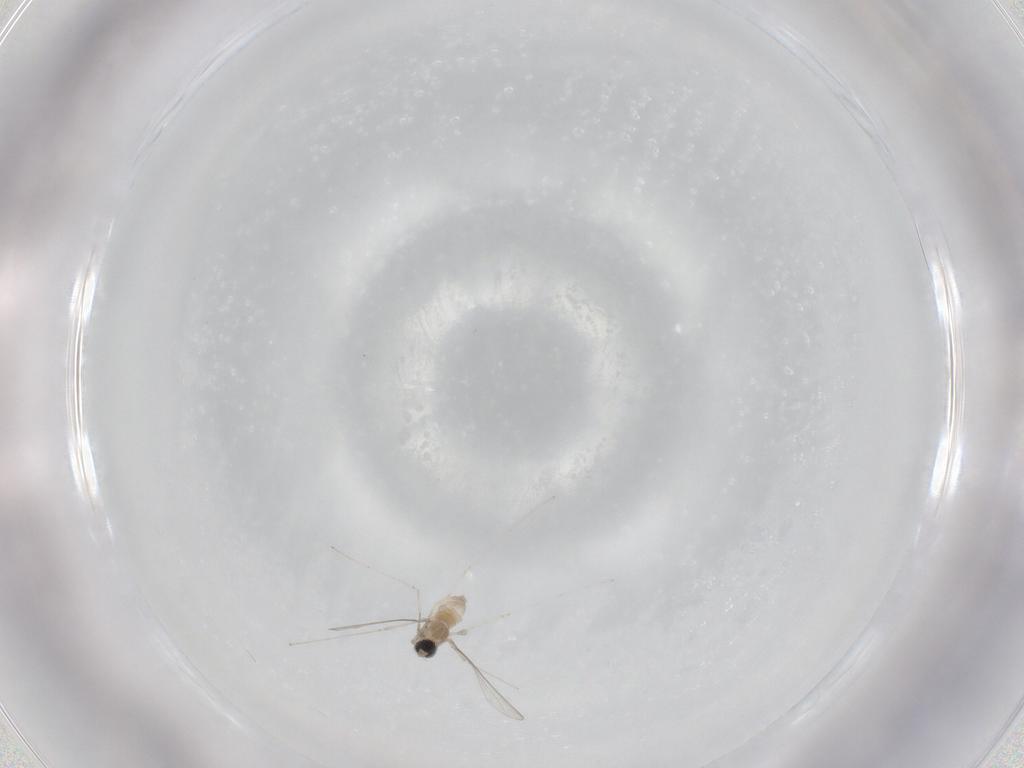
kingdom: Animalia
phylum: Arthropoda
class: Insecta
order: Diptera
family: Cecidomyiidae
